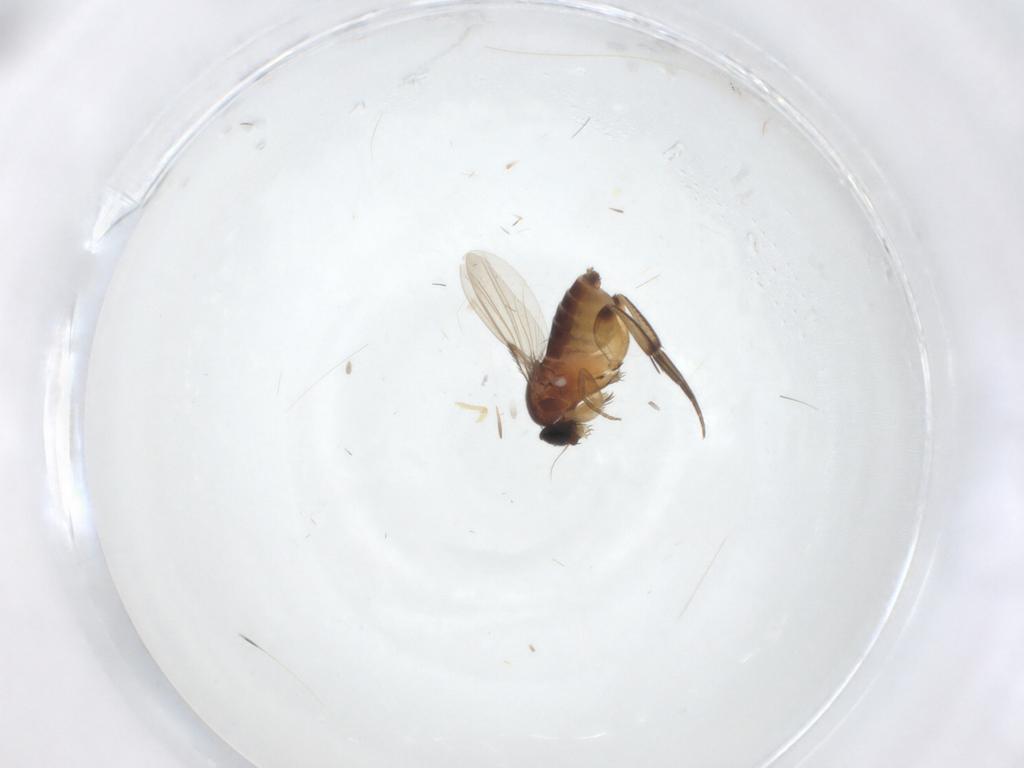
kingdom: Animalia
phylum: Arthropoda
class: Insecta
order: Diptera
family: Phoridae
